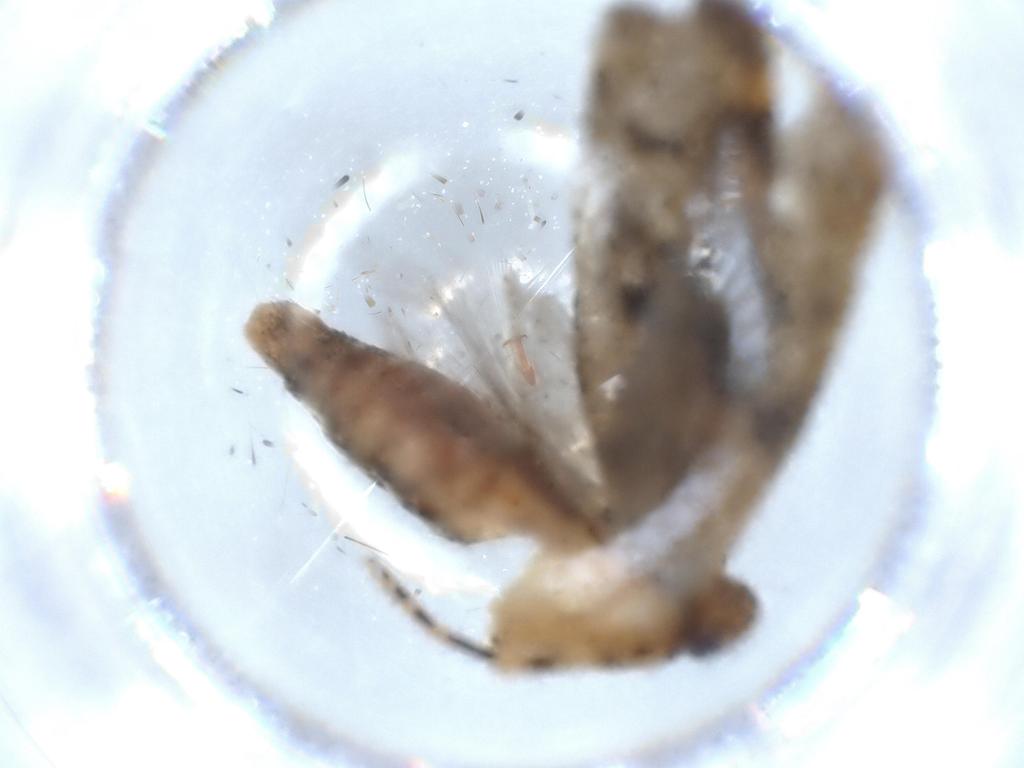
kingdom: Animalia
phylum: Arthropoda
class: Insecta
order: Lepidoptera
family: Gelechiidae
